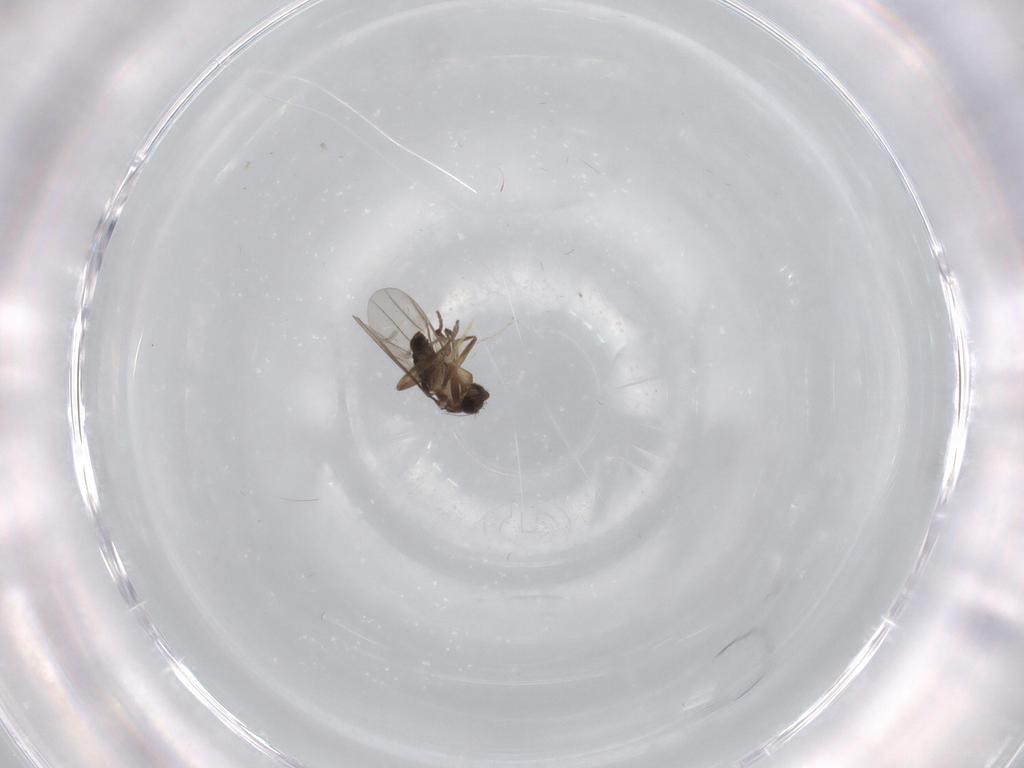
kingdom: Animalia
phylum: Arthropoda
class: Insecta
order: Diptera
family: Phoridae
